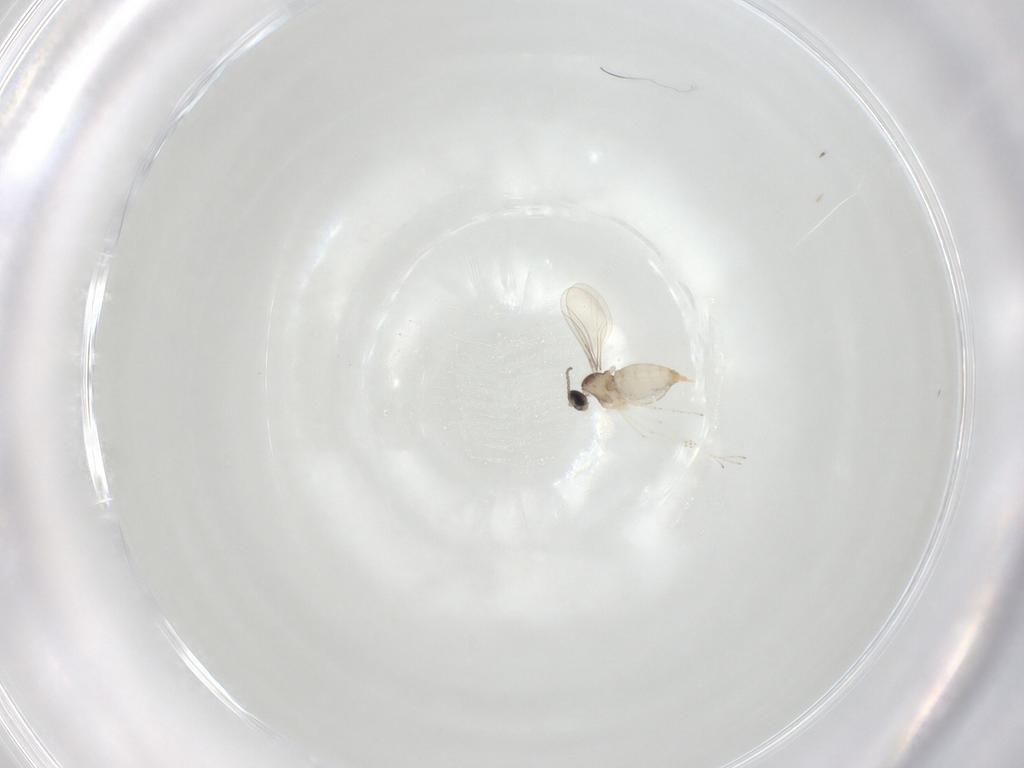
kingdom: Animalia
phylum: Arthropoda
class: Insecta
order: Diptera
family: Cecidomyiidae
